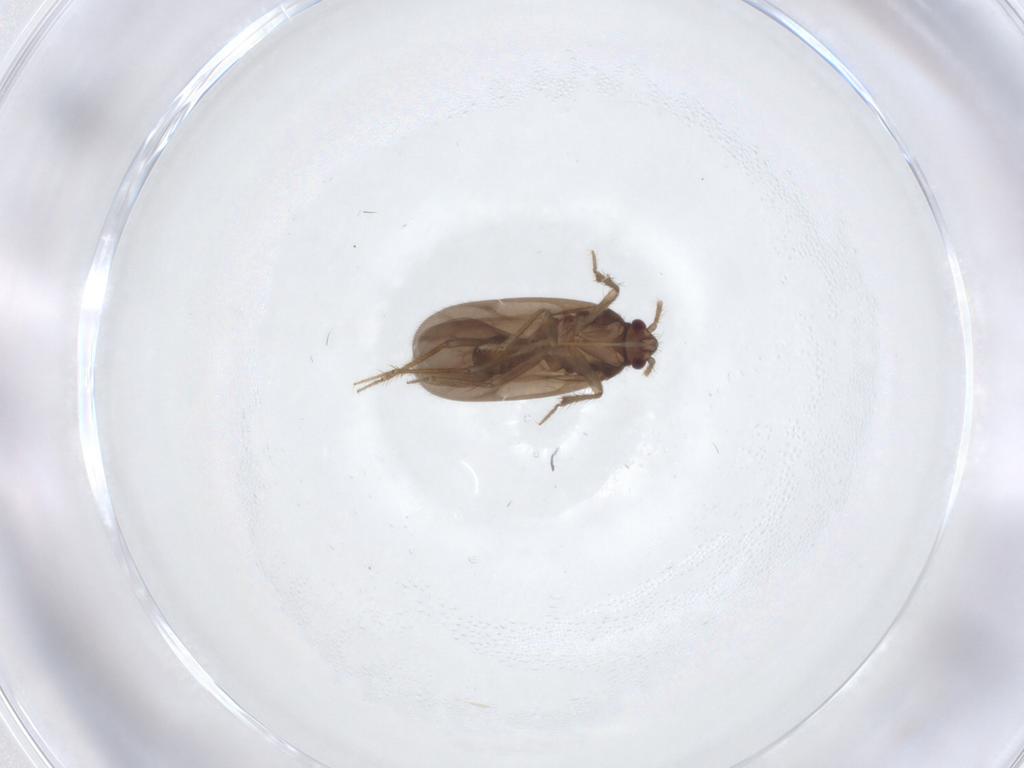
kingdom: Animalia
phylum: Arthropoda
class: Insecta
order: Hemiptera
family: Ceratocombidae
